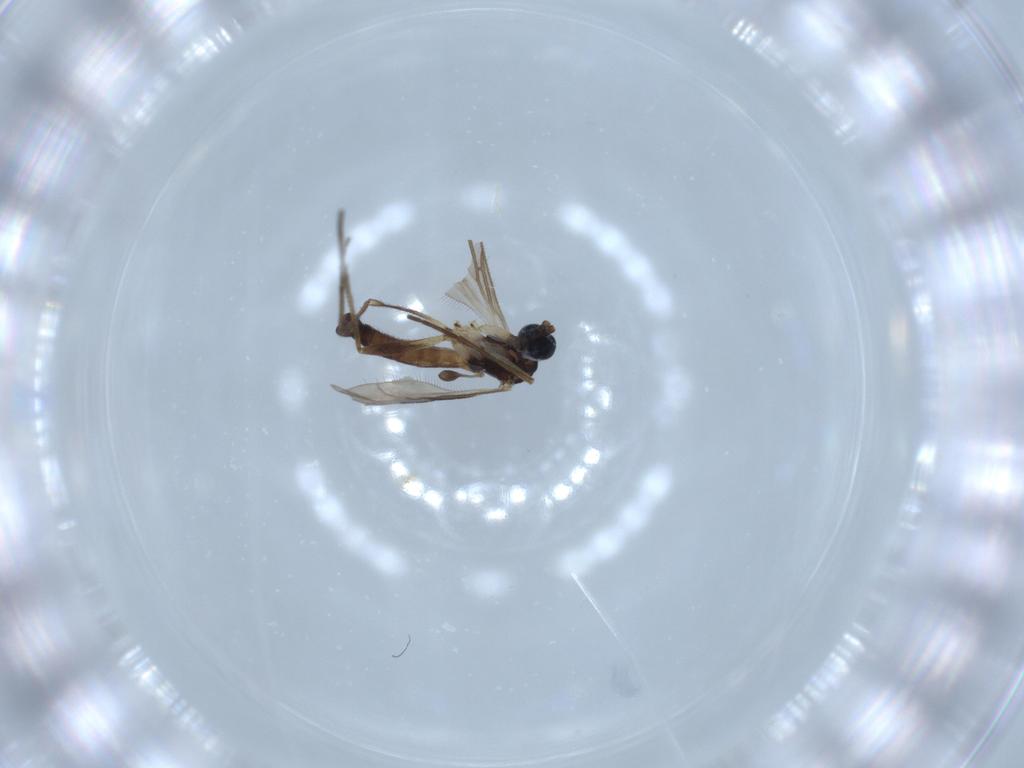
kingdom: Animalia
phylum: Arthropoda
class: Insecta
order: Diptera
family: Sciaridae
